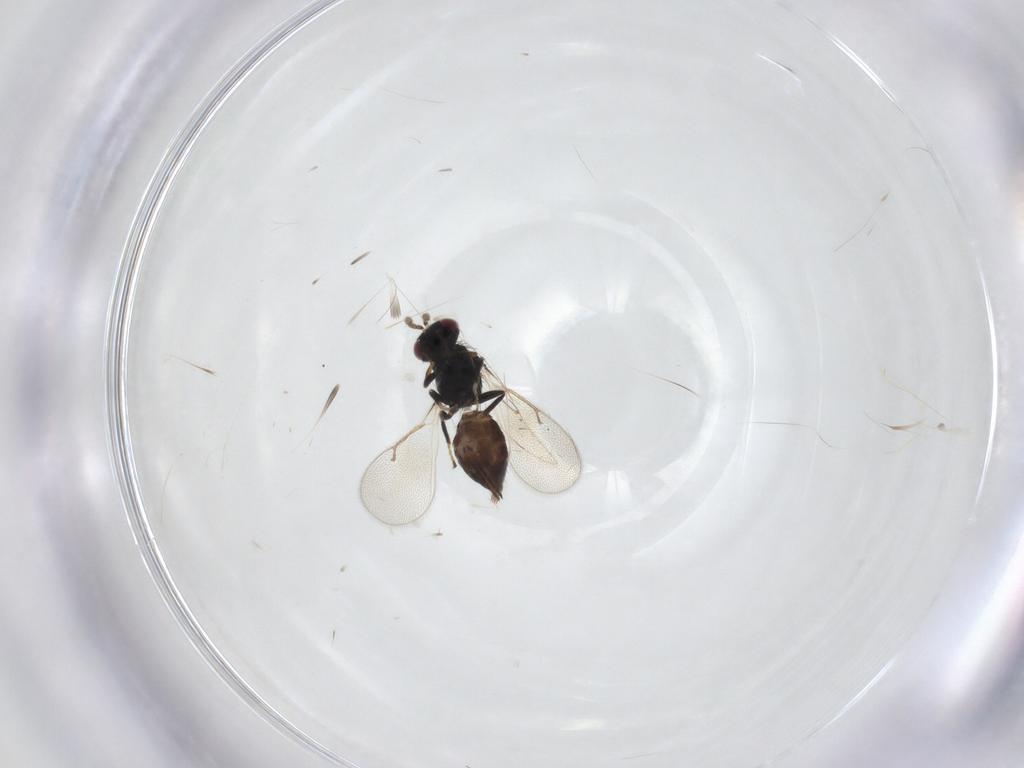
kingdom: Animalia
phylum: Arthropoda
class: Insecta
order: Hymenoptera
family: Eulophidae
